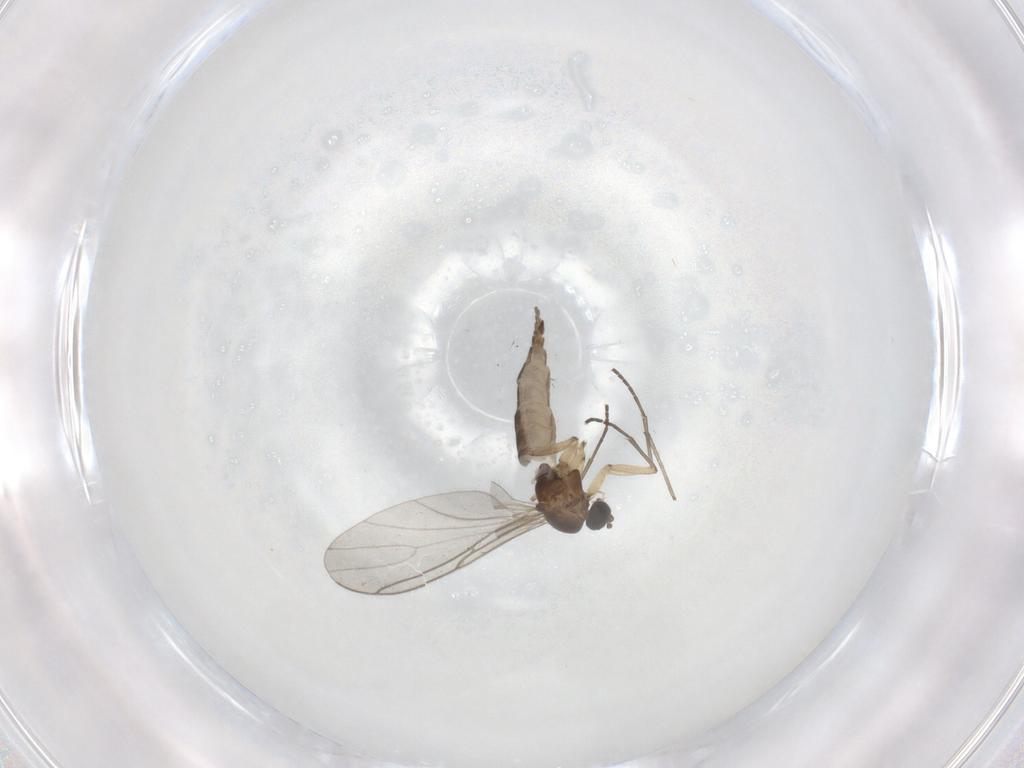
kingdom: Animalia
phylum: Arthropoda
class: Insecta
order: Diptera
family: Sciaridae
